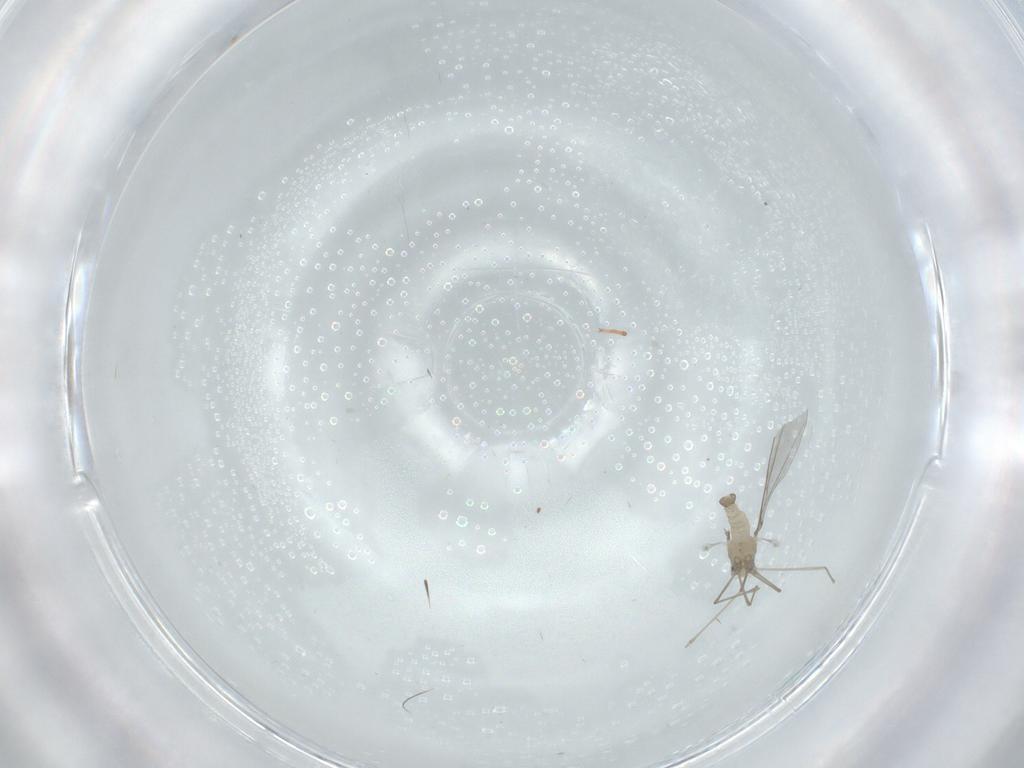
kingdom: Animalia
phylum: Arthropoda
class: Insecta
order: Diptera
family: Cecidomyiidae
